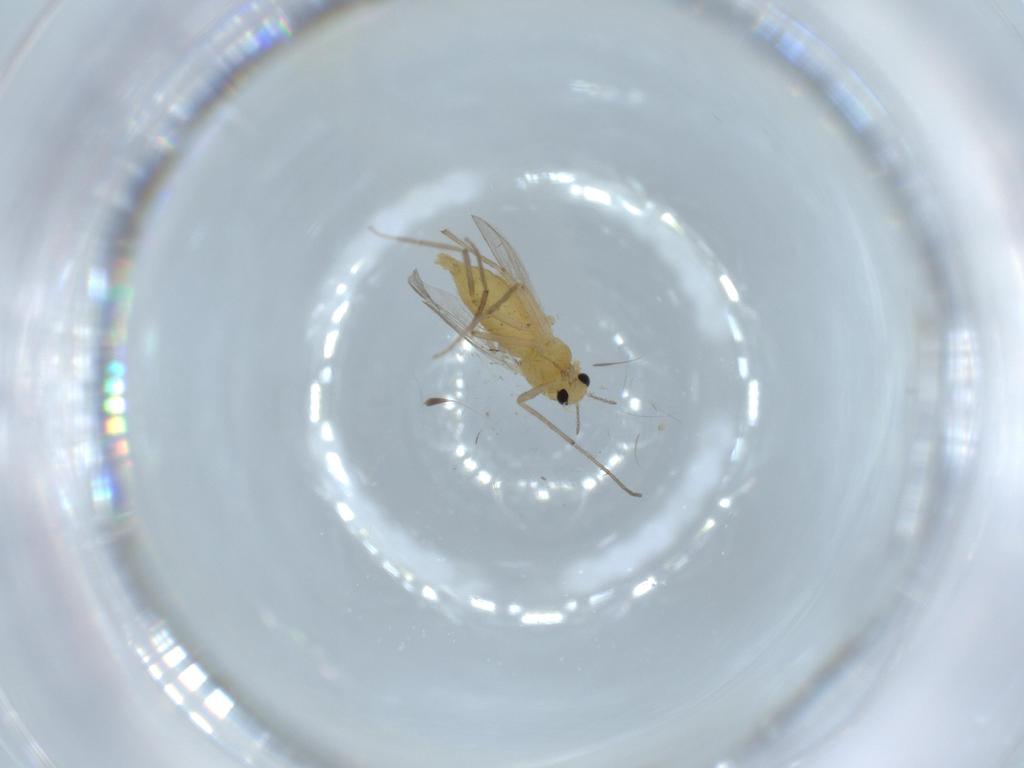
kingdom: Animalia
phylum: Arthropoda
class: Insecta
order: Diptera
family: Chironomidae
